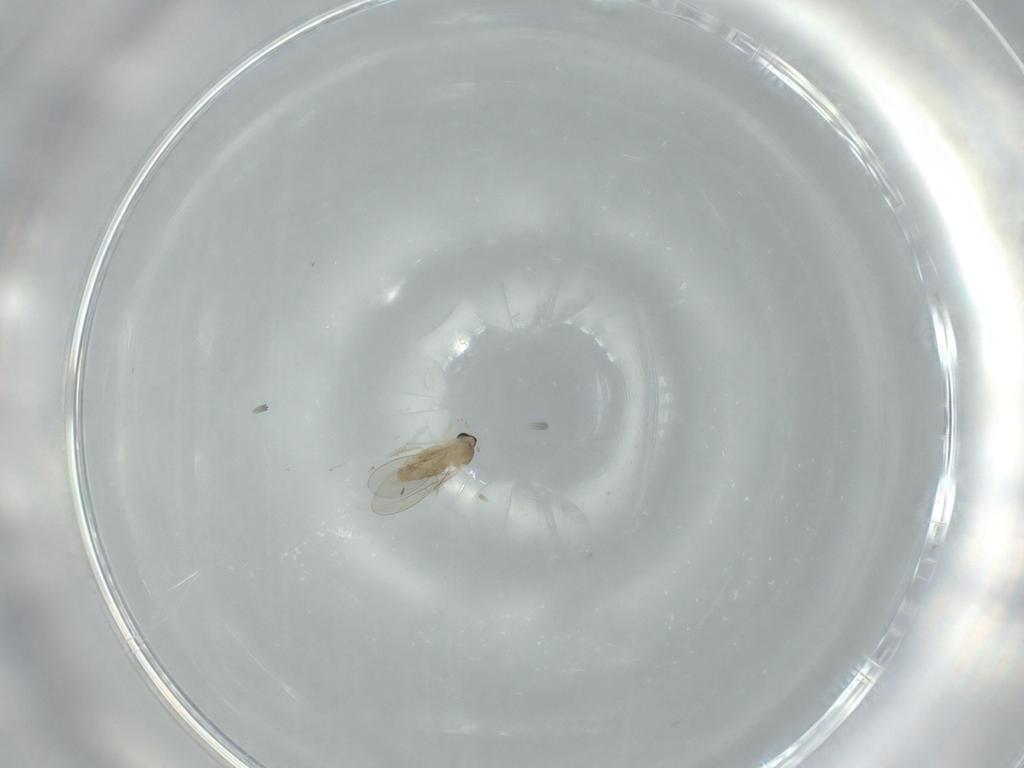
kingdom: Animalia
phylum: Arthropoda
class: Insecta
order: Diptera
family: Cecidomyiidae
